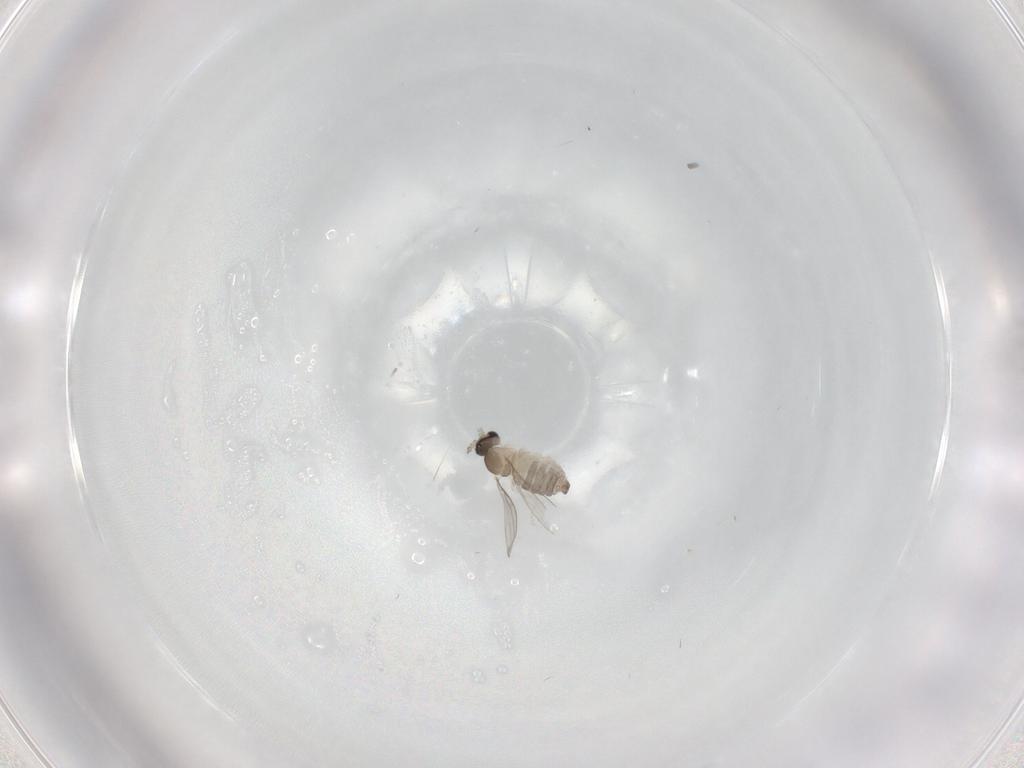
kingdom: Animalia
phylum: Arthropoda
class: Insecta
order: Diptera
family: Cecidomyiidae
